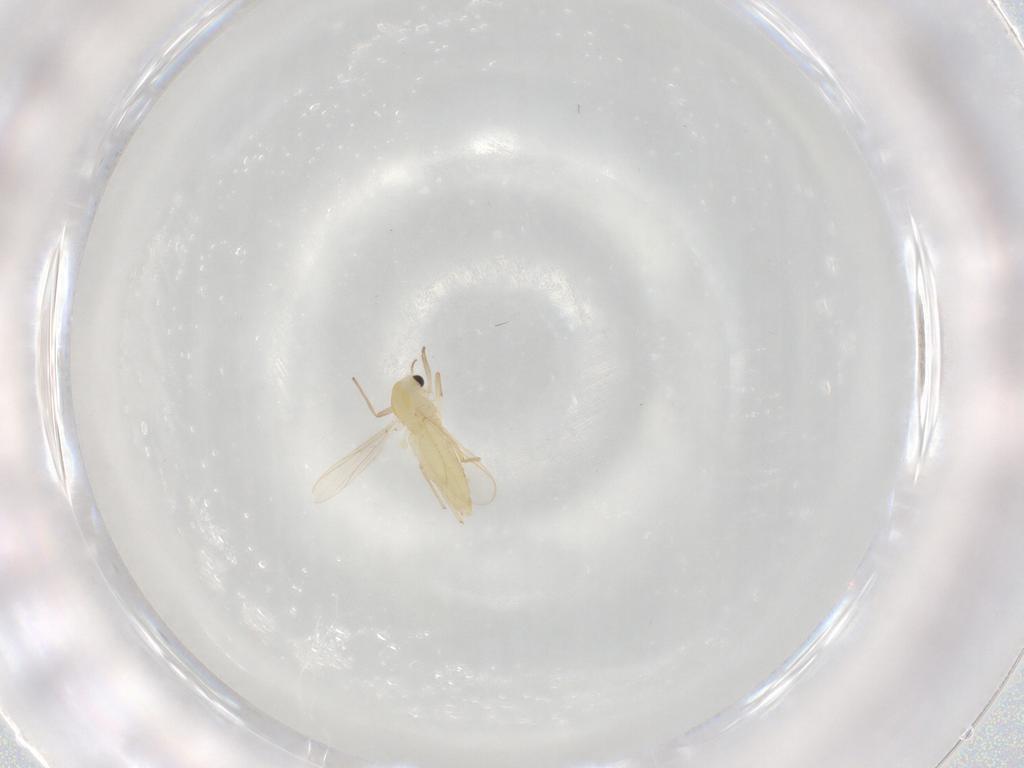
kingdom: Animalia
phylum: Arthropoda
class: Insecta
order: Diptera
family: Chironomidae
